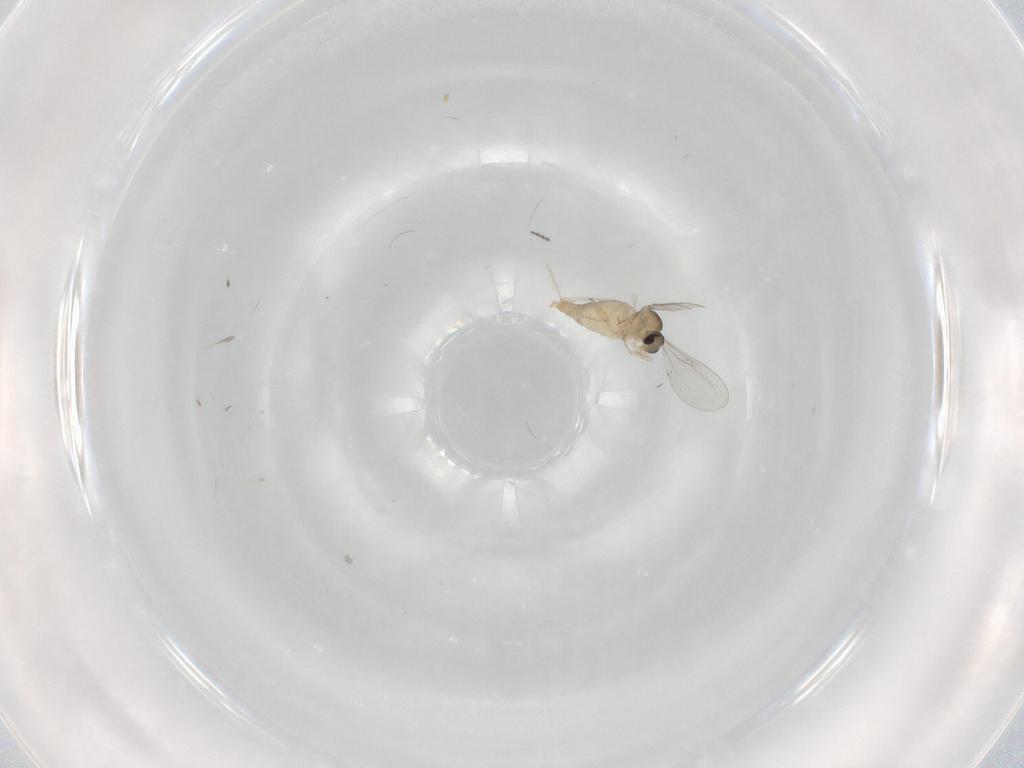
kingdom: Animalia
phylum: Arthropoda
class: Insecta
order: Diptera
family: Cecidomyiidae
